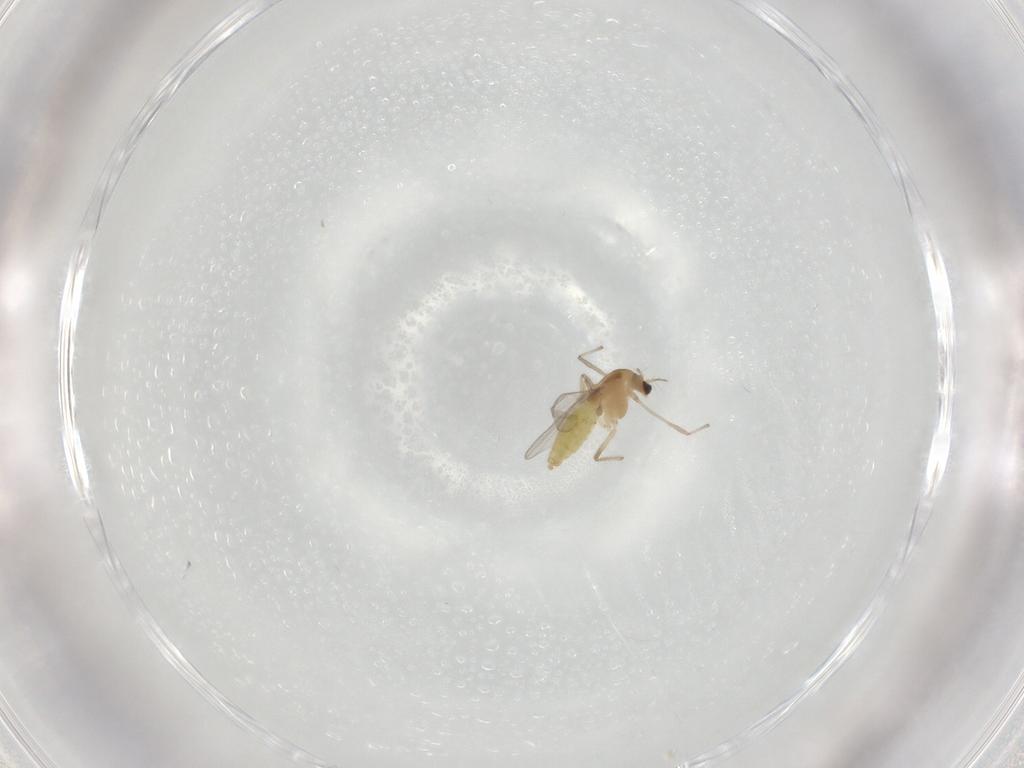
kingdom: Animalia
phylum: Arthropoda
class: Insecta
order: Diptera
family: Chironomidae
